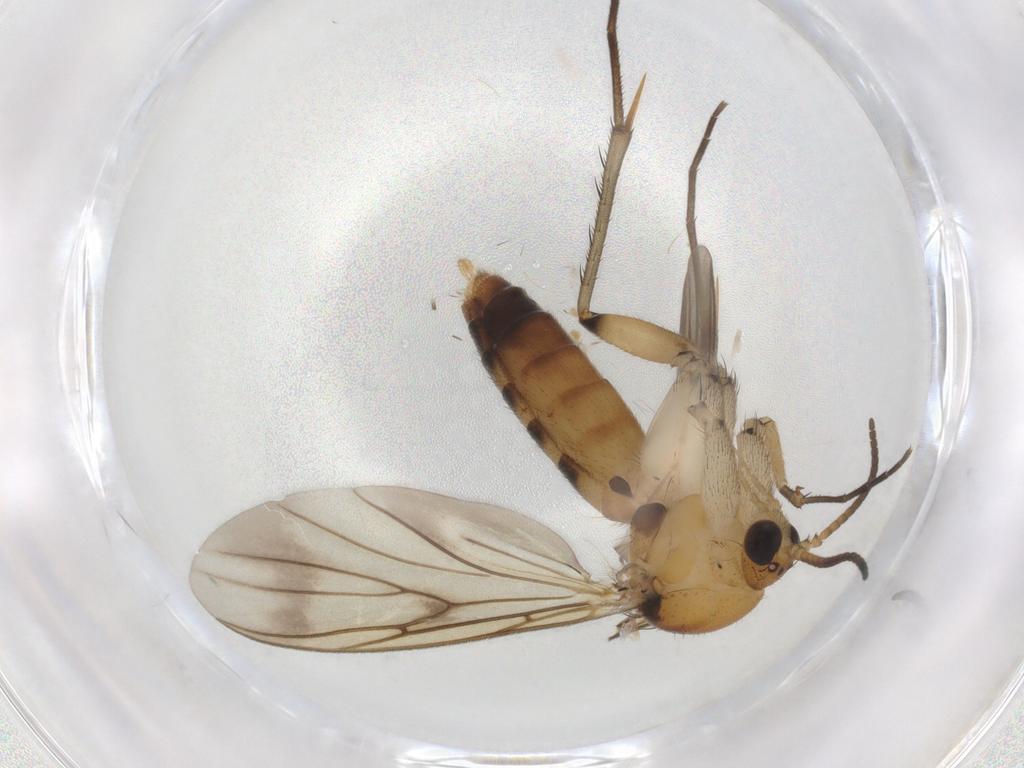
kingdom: Animalia
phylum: Arthropoda
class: Insecta
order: Diptera
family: Mycetophilidae
